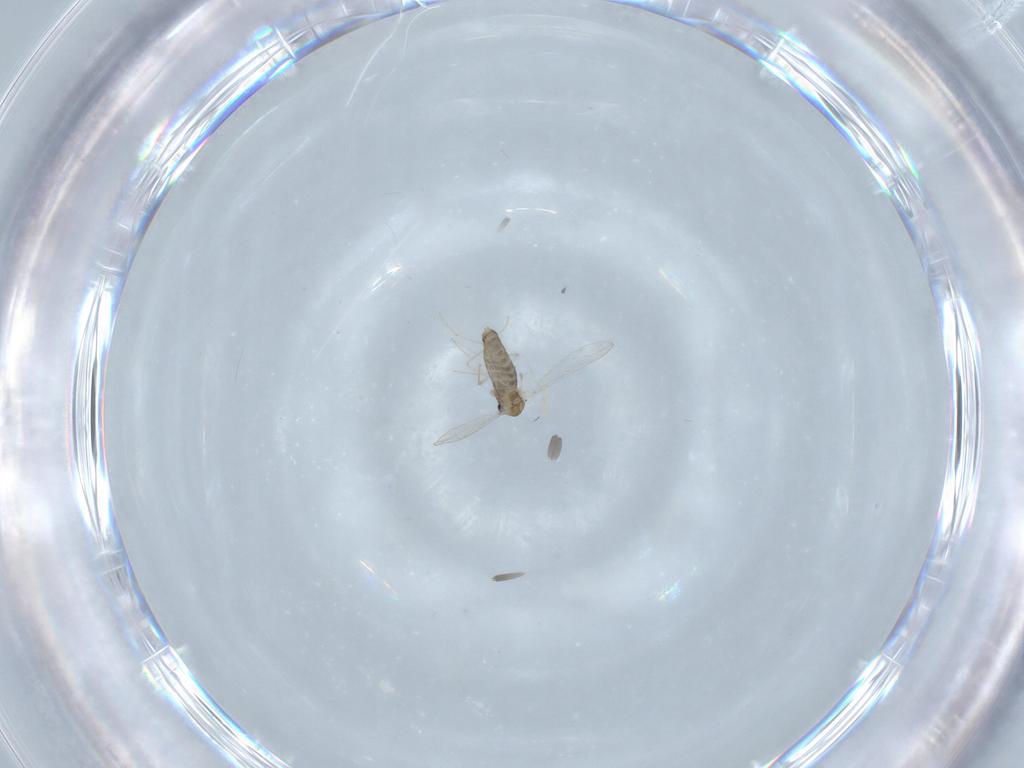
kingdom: Animalia
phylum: Arthropoda
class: Insecta
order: Diptera
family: Chironomidae
